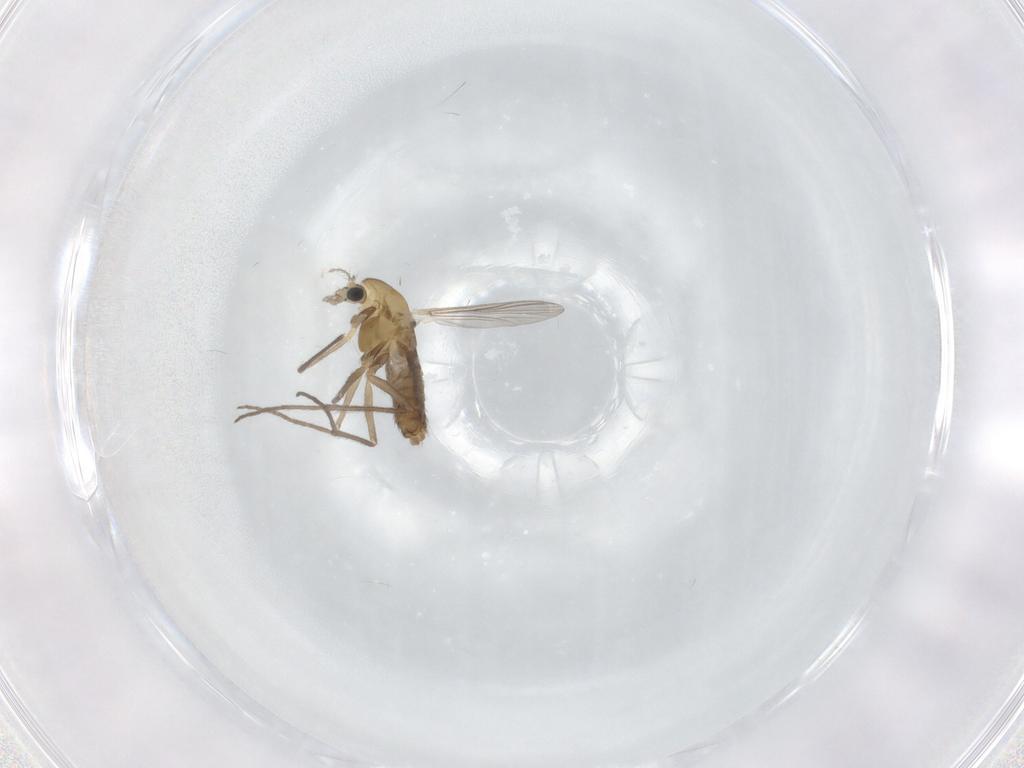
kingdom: Animalia
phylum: Arthropoda
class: Insecta
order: Diptera
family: Chironomidae
